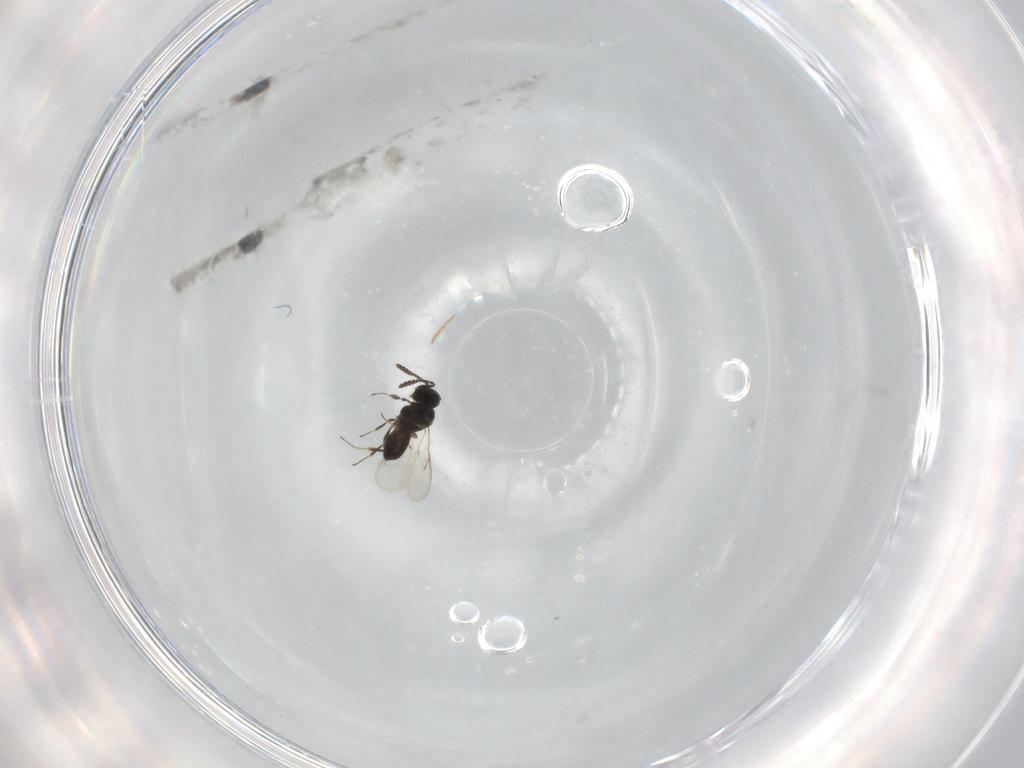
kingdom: Animalia
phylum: Arthropoda
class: Insecta
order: Hymenoptera
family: Scelionidae
